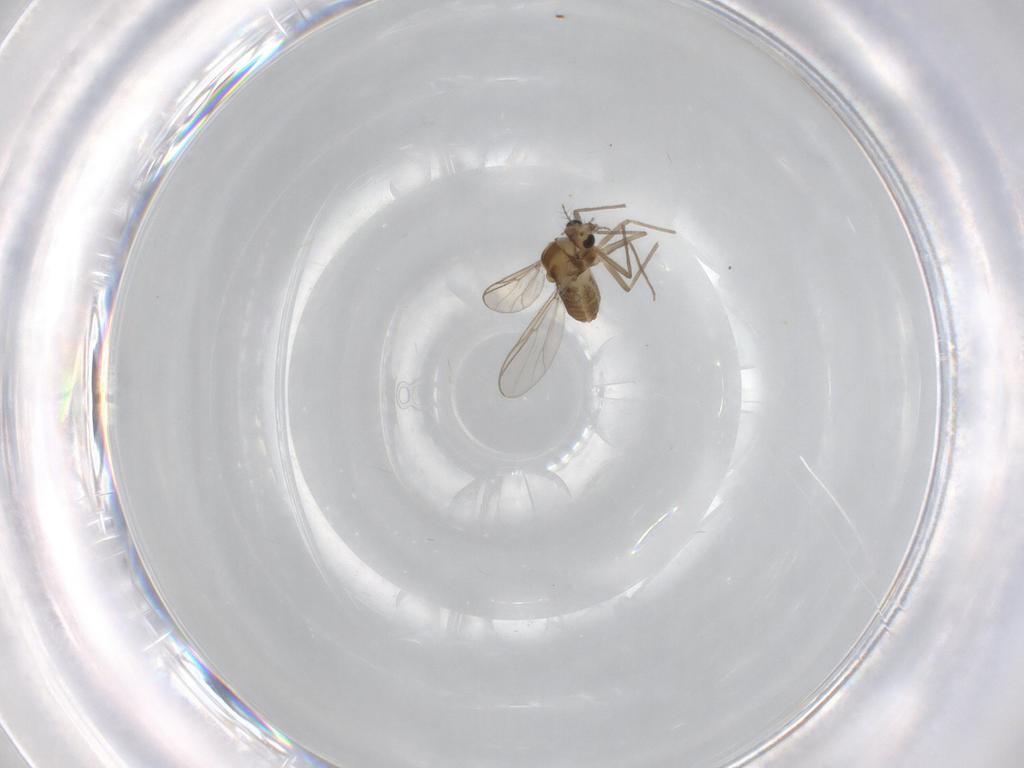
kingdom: Animalia
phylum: Arthropoda
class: Insecta
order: Diptera
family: Chironomidae
